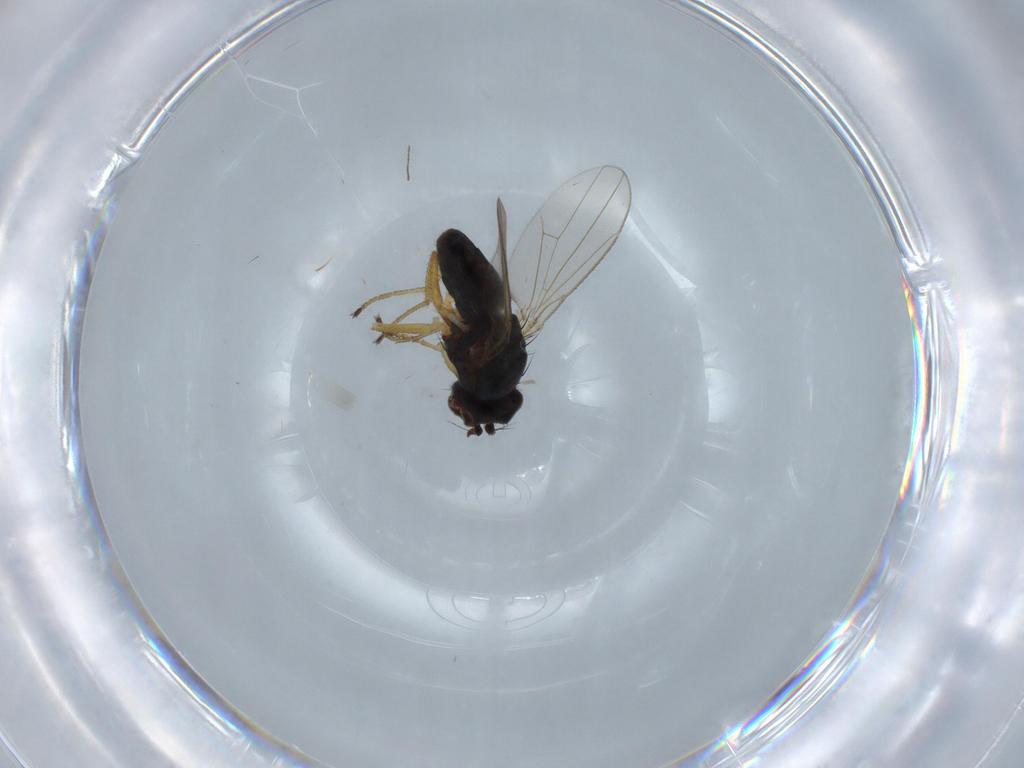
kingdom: Animalia
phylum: Arthropoda
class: Insecta
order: Diptera
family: Ephydridae
